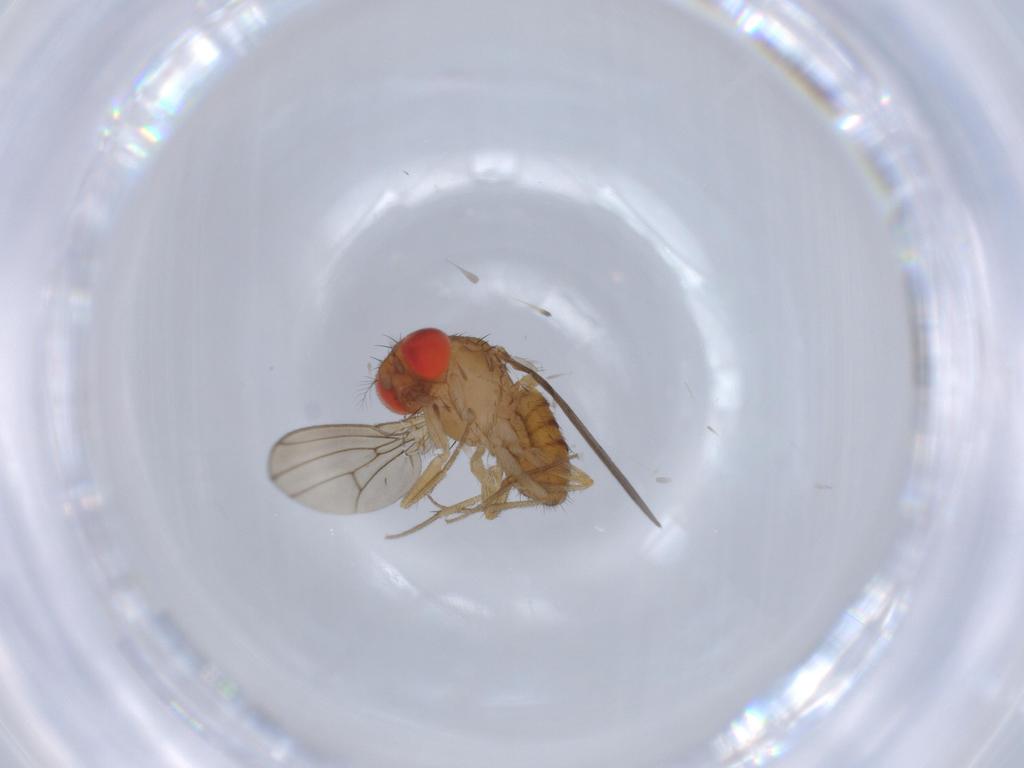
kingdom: Animalia
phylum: Arthropoda
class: Insecta
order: Diptera
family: Drosophilidae
